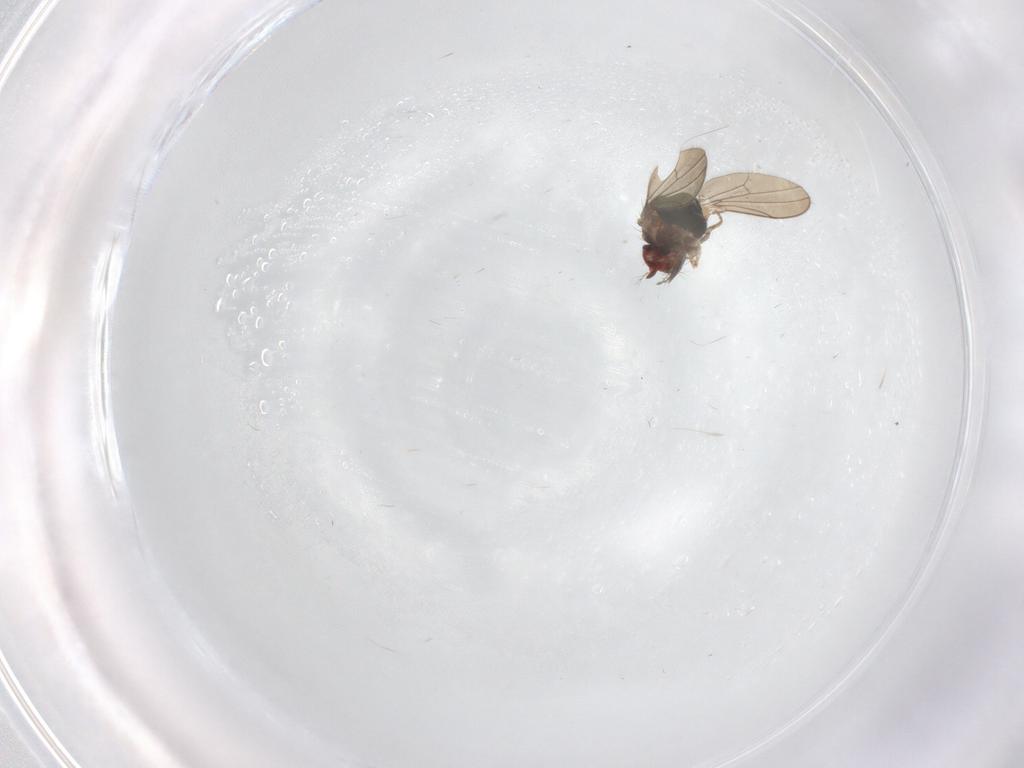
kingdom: Animalia
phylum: Arthropoda
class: Insecta
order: Diptera
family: Drosophilidae
